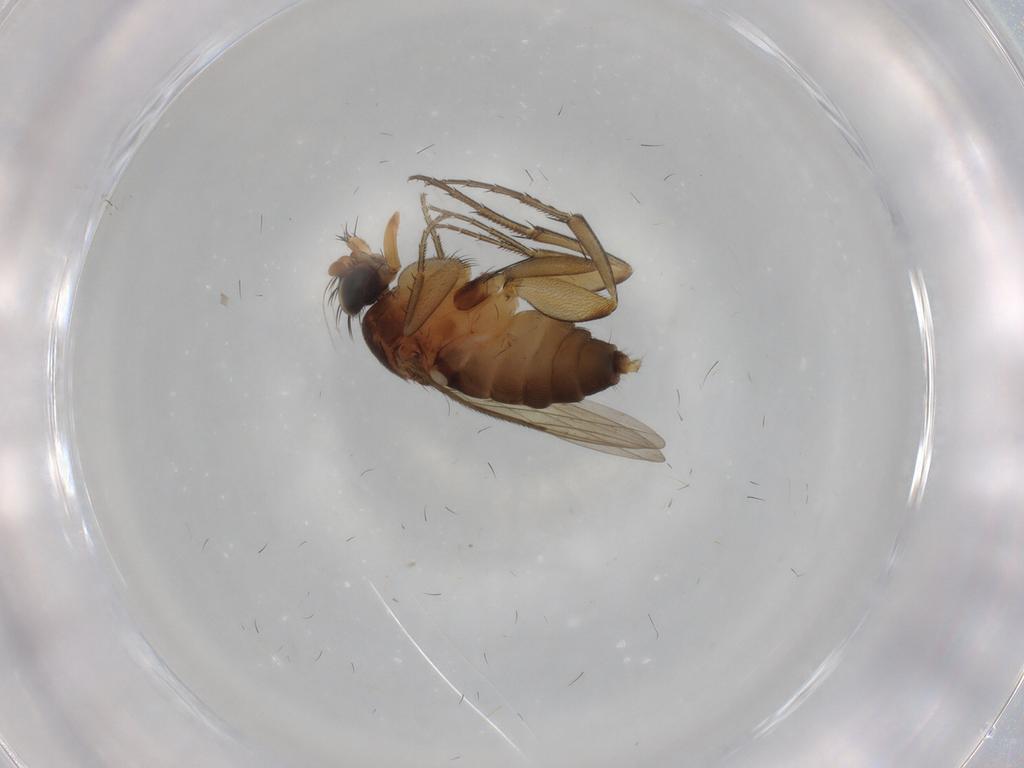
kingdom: Animalia
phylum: Arthropoda
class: Insecta
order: Diptera
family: Phoridae
